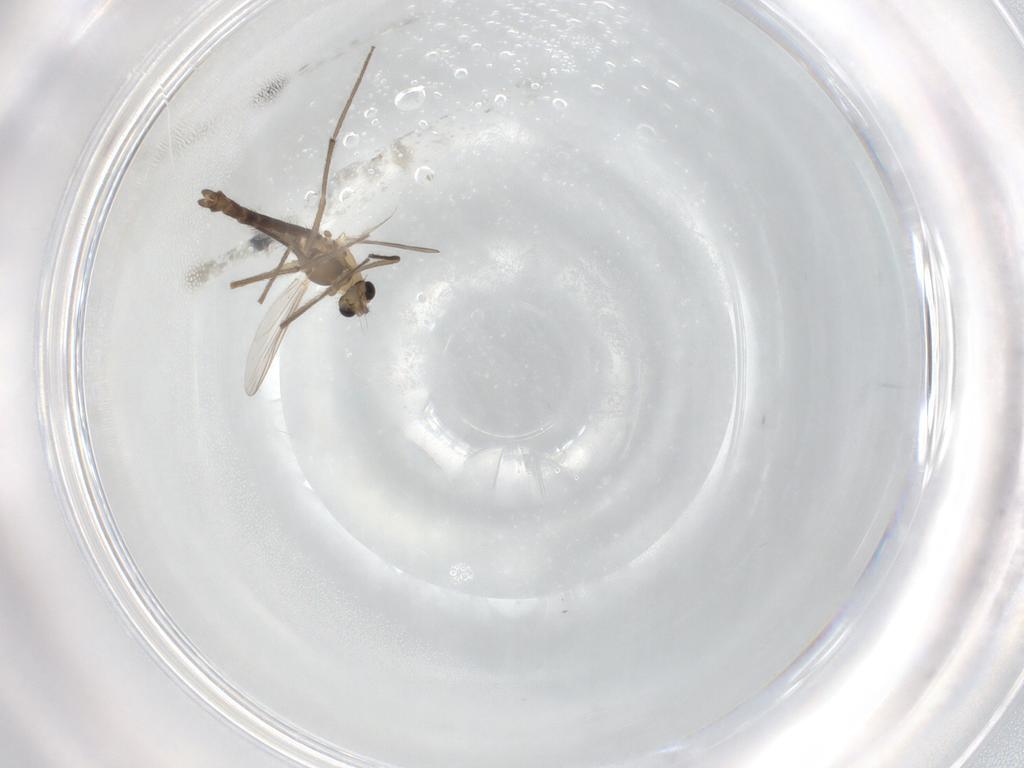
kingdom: Animalia
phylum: Arthropoda
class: Insecta
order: Diptera
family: Chironomidae
